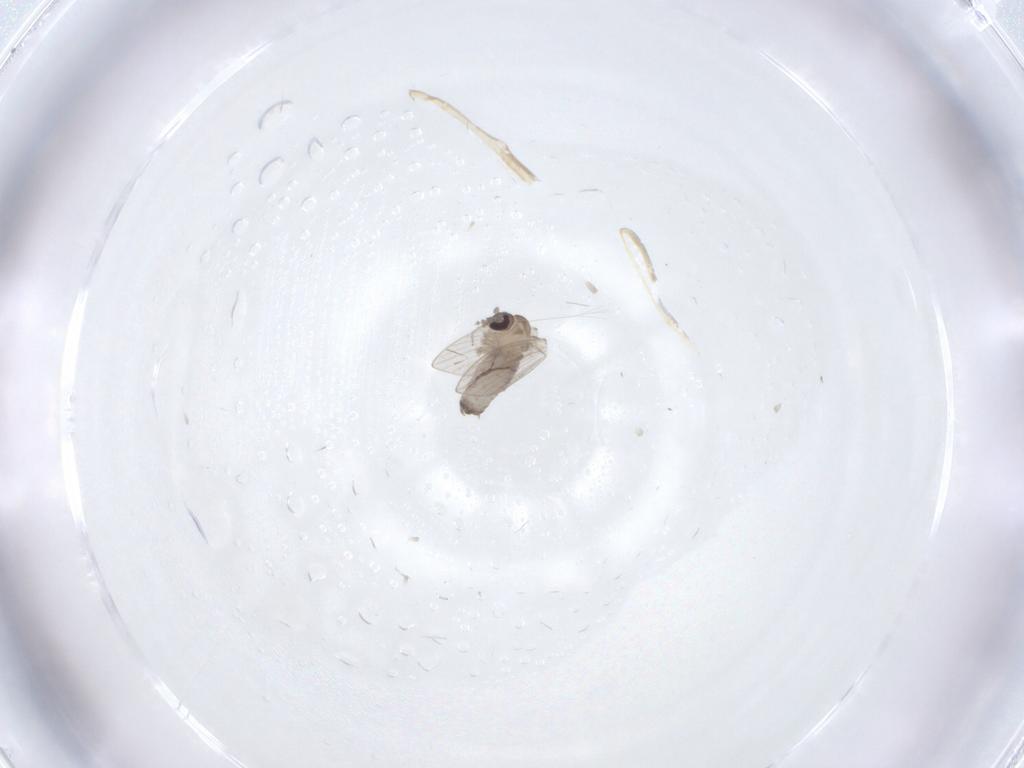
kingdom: Animalia
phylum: Arthropoda
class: Insecta
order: Diptera
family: Psychodidae
